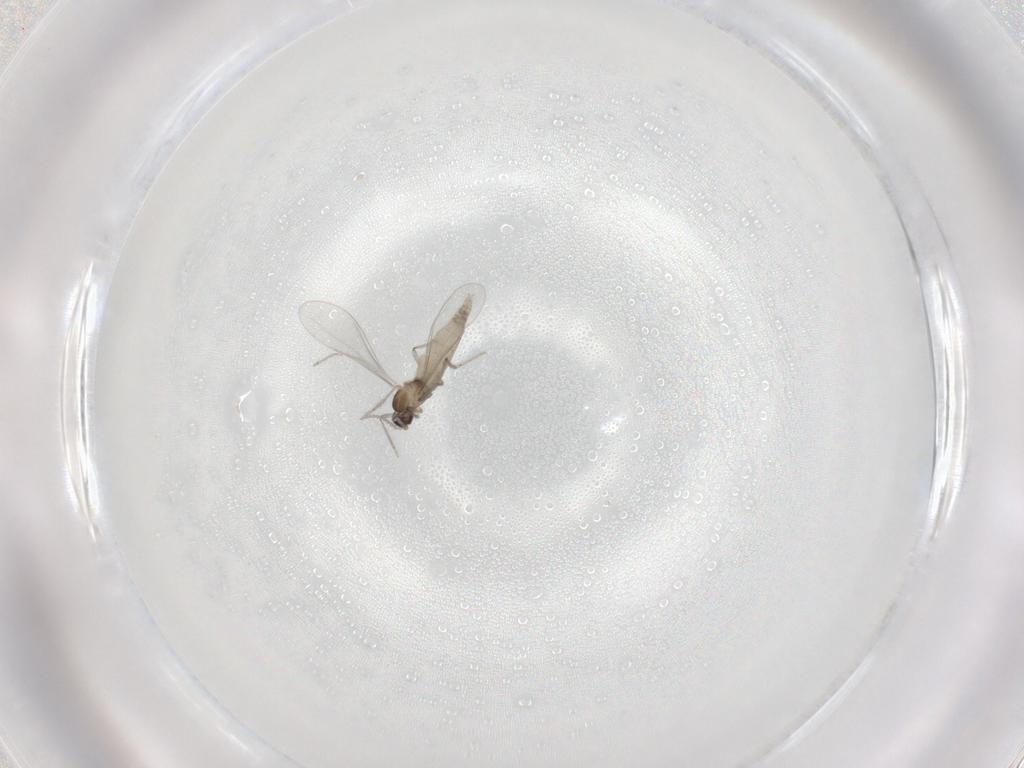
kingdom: Animalia
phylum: Arthropoda
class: Insecta
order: Diptera
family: Cecidomyiidae
